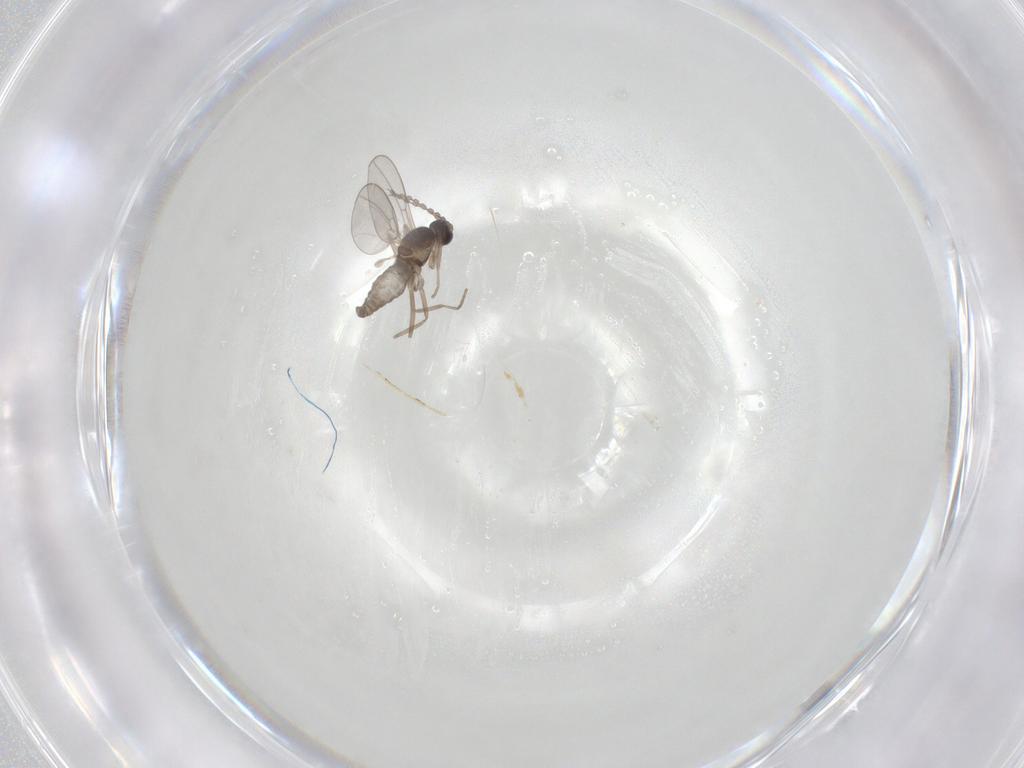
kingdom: Animalia
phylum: Arthropoda
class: Insecta
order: Diptera
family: Cecidomyiidae
